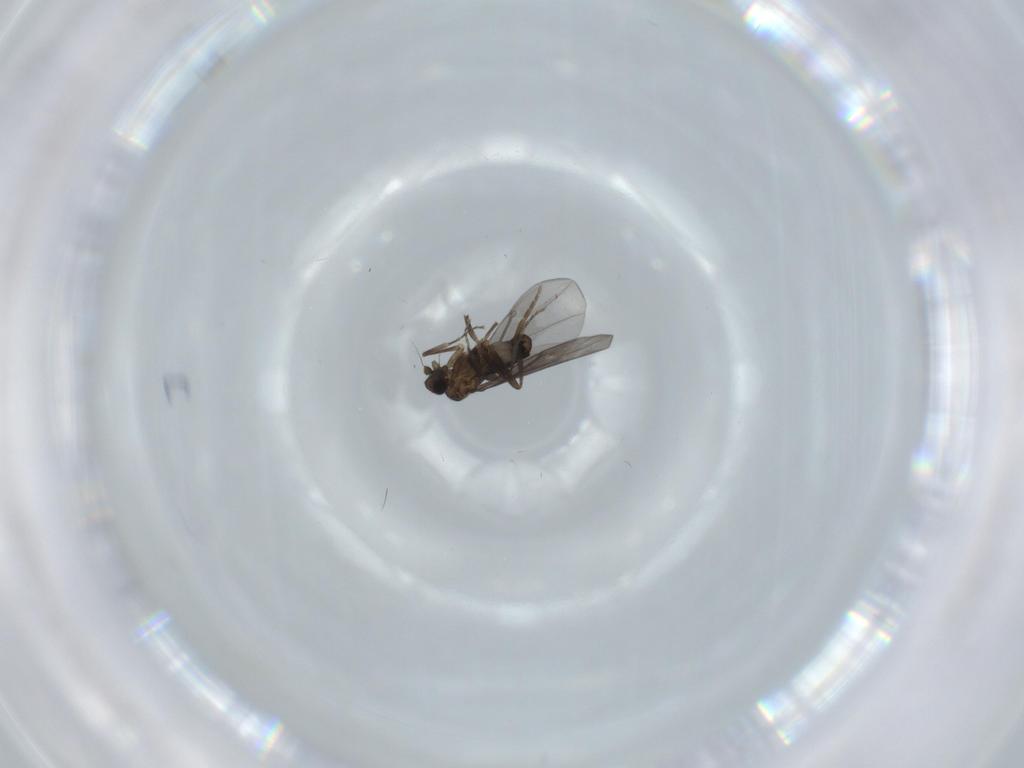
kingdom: Animalia
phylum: Arthropoda
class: Insecta
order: Diptera
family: Phoridae
